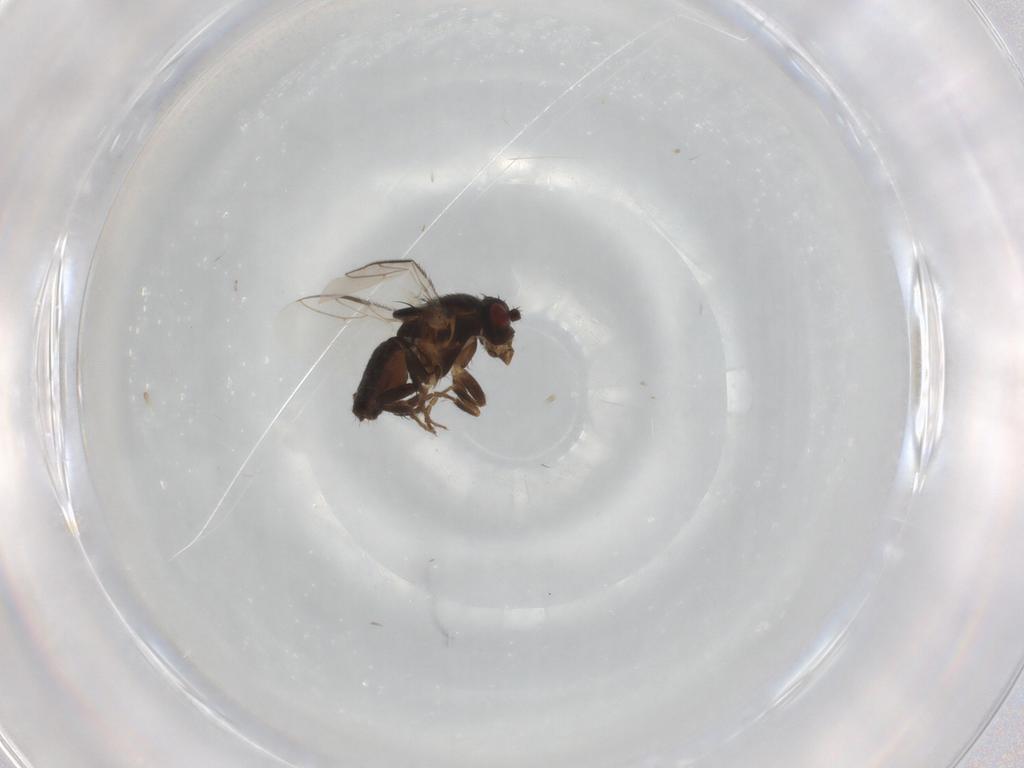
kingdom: Animalia
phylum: Arthropoda
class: Insecta
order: Diptera
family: Sphaeroceridae
